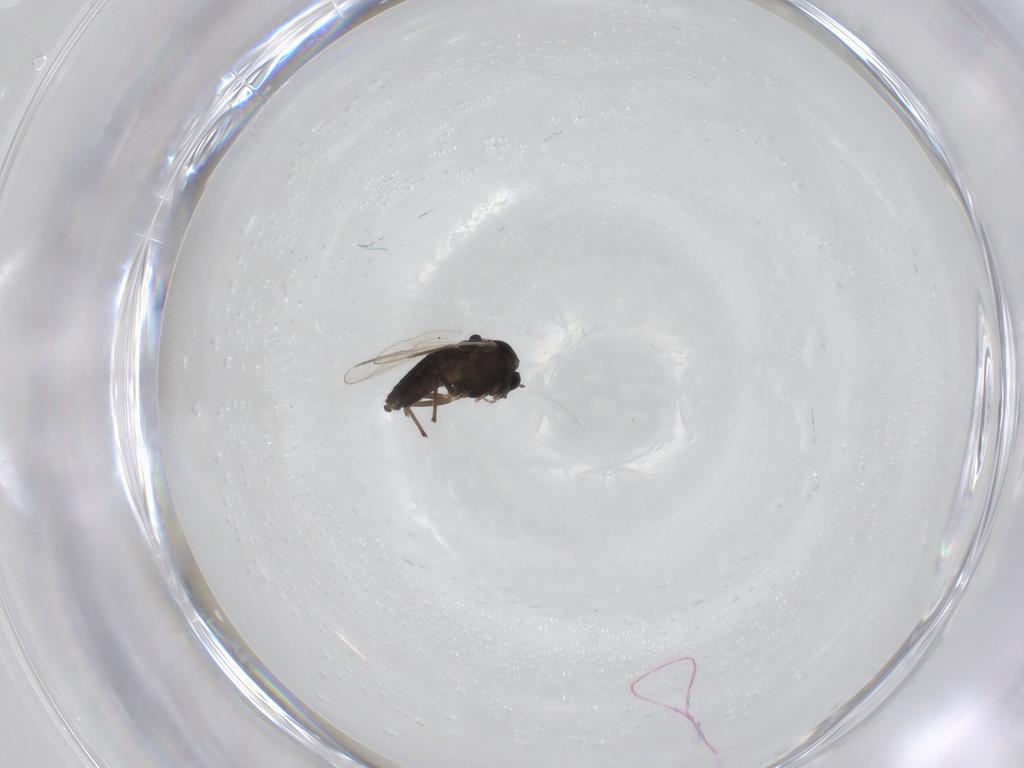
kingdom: Animalia
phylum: Arthropoda
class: Insecta
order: Diptera
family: Chironomidae
